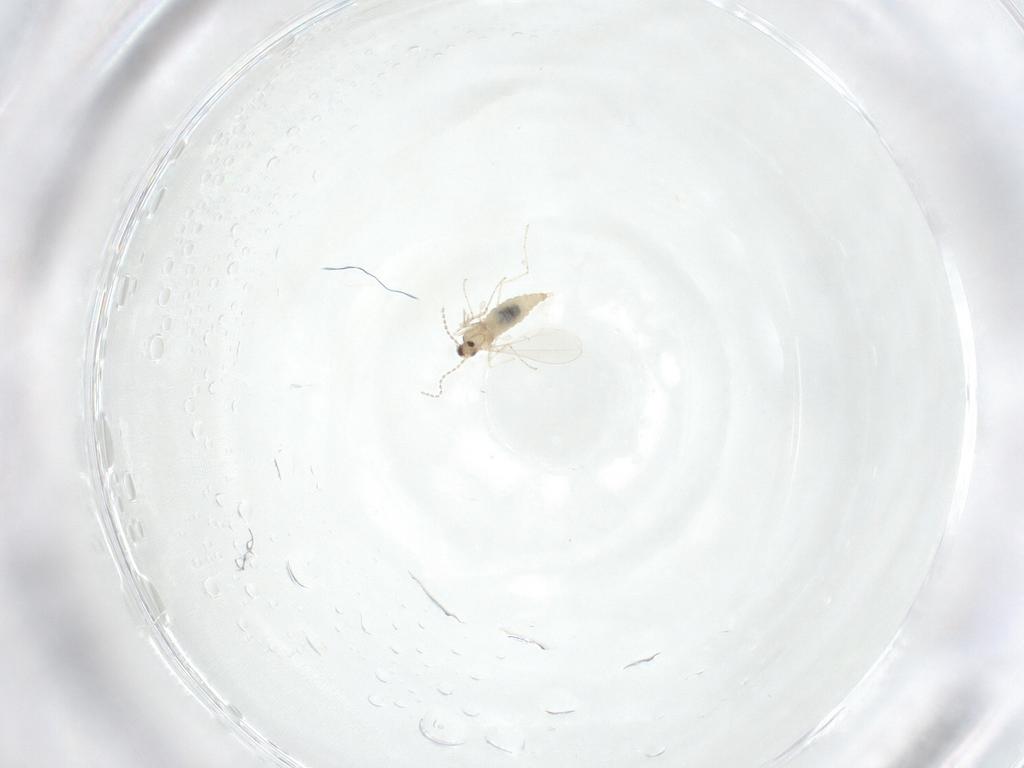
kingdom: Animalia
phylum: Arthropoda
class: Insecta
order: Diptera
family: Cecidomyiidae
